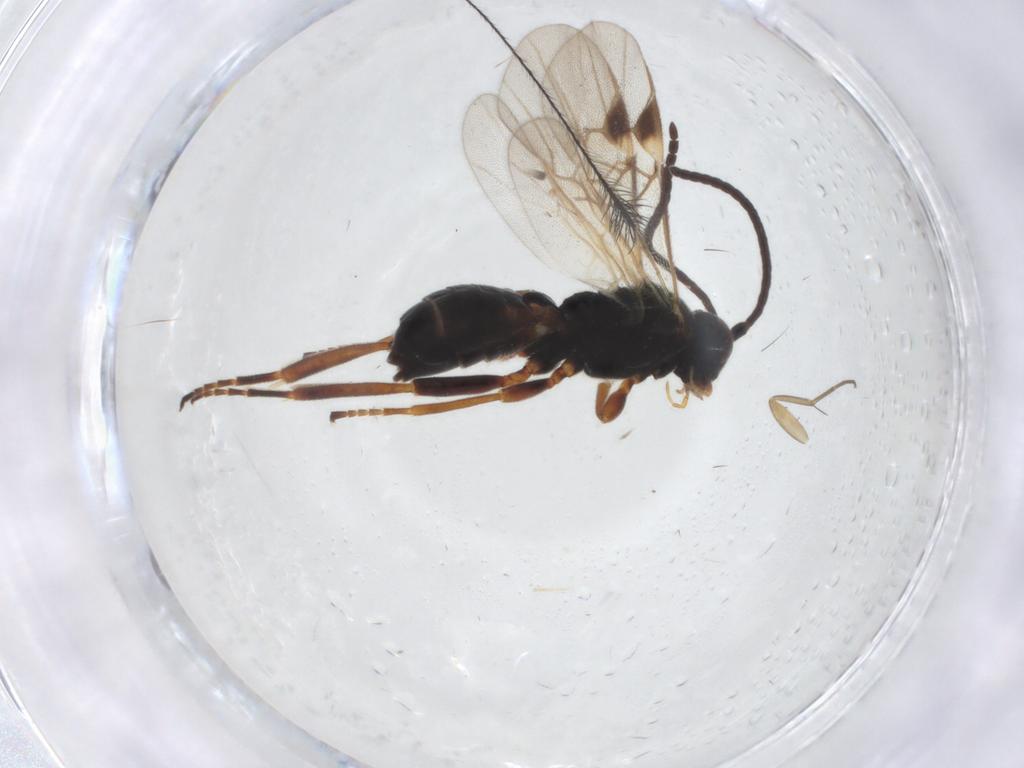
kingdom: Animalia
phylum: Arthropoda
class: Insecta
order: Hymenoptera
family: Braconidae
